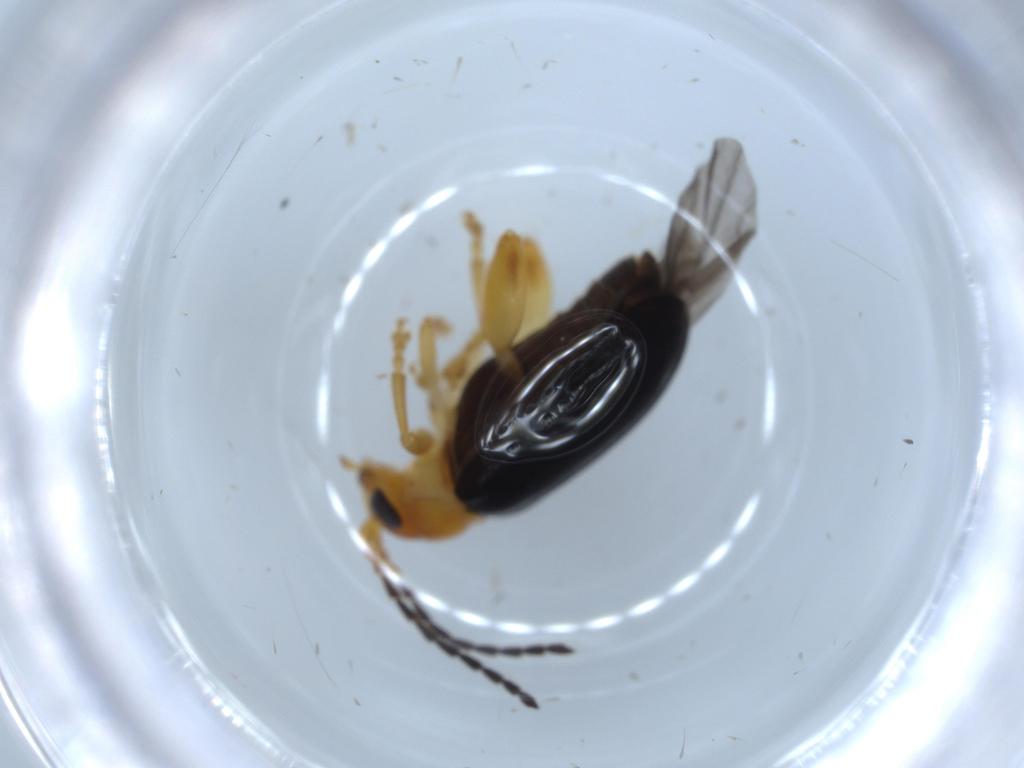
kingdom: Animalia
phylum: Arthropoda
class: Insecta
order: Coleoptera
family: Chrysomelidae
